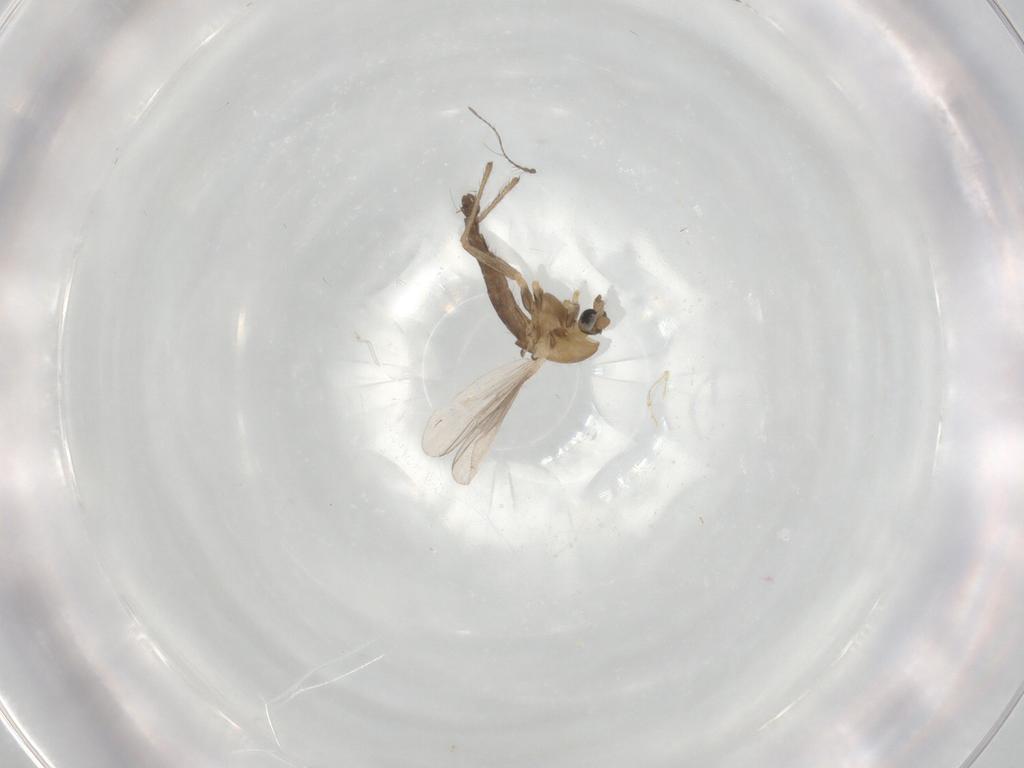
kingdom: Animalia
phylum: Arthropoda
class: Insecta
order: Diptera
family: Chironomidae
